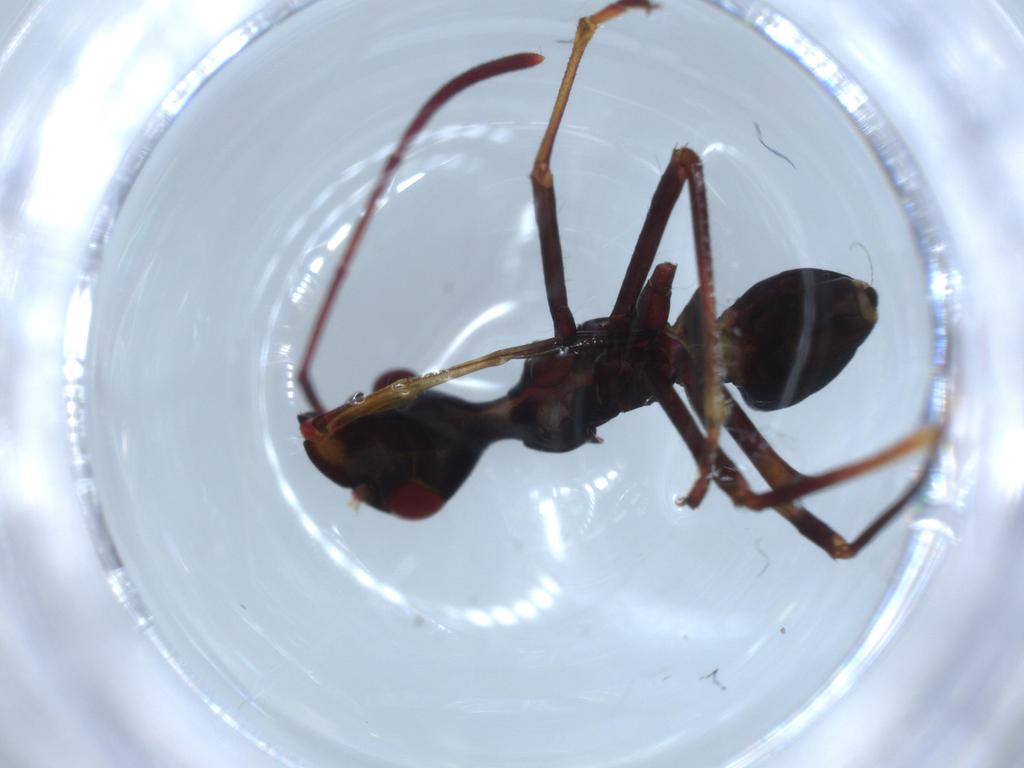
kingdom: Animalia
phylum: Arthropoda
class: Insecta
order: Hemiptera
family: Alydidae
